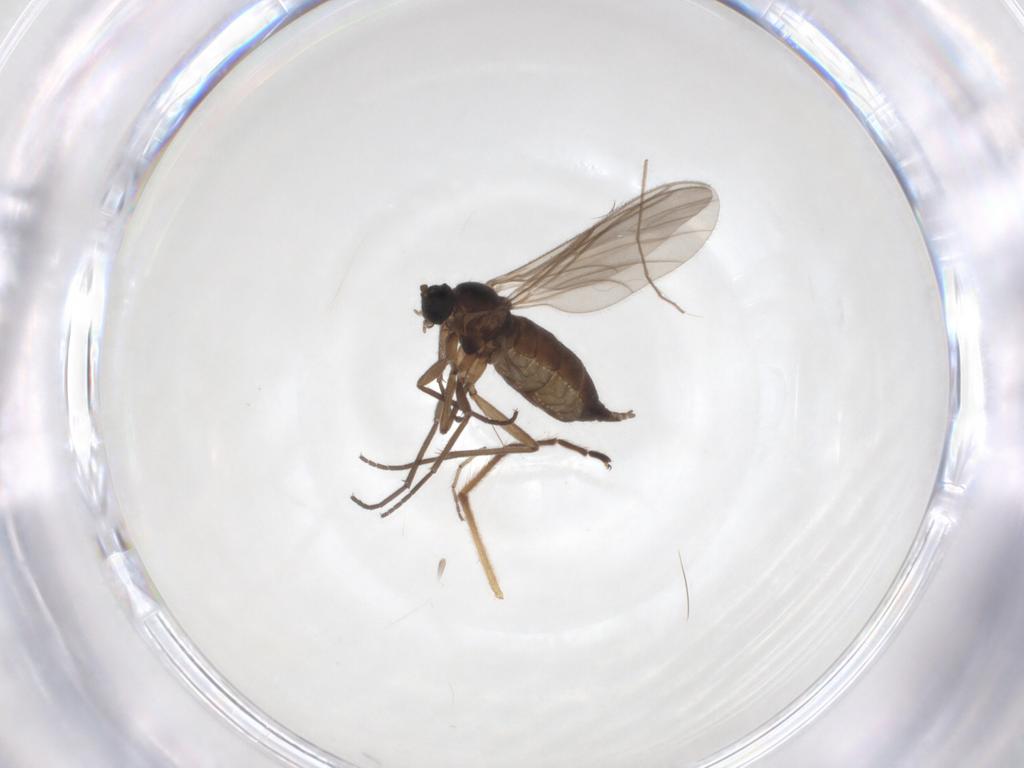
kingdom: Animalia
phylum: Arthropoda
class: Insecta
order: Diptera
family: Sciaridae
